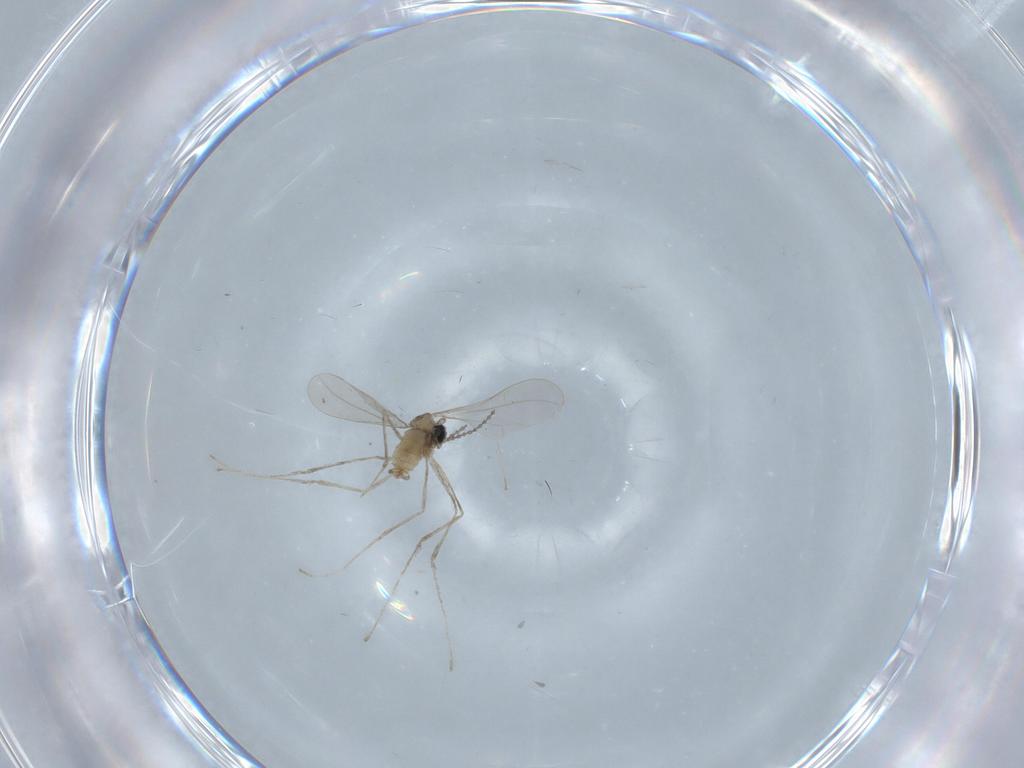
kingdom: Animalia
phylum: Arthropoda
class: Insecta
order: Diptera
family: Cecidomyiidae
